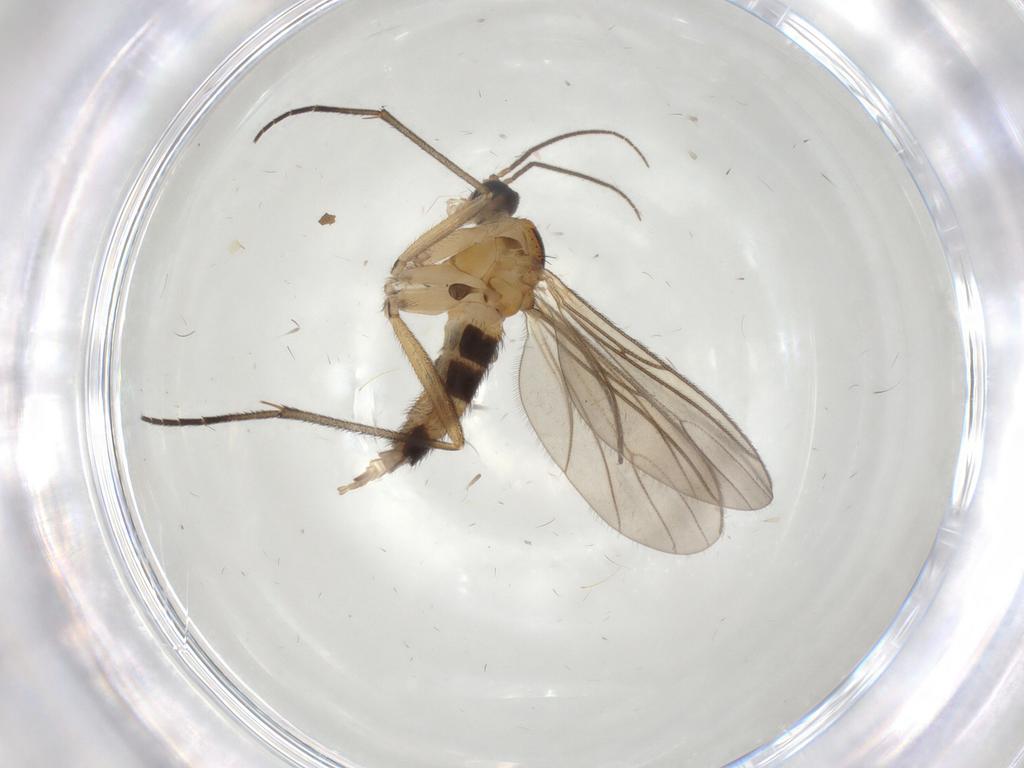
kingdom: Animalia
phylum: Arthropoda
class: Insecta
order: Diptera
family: Sciaridae
